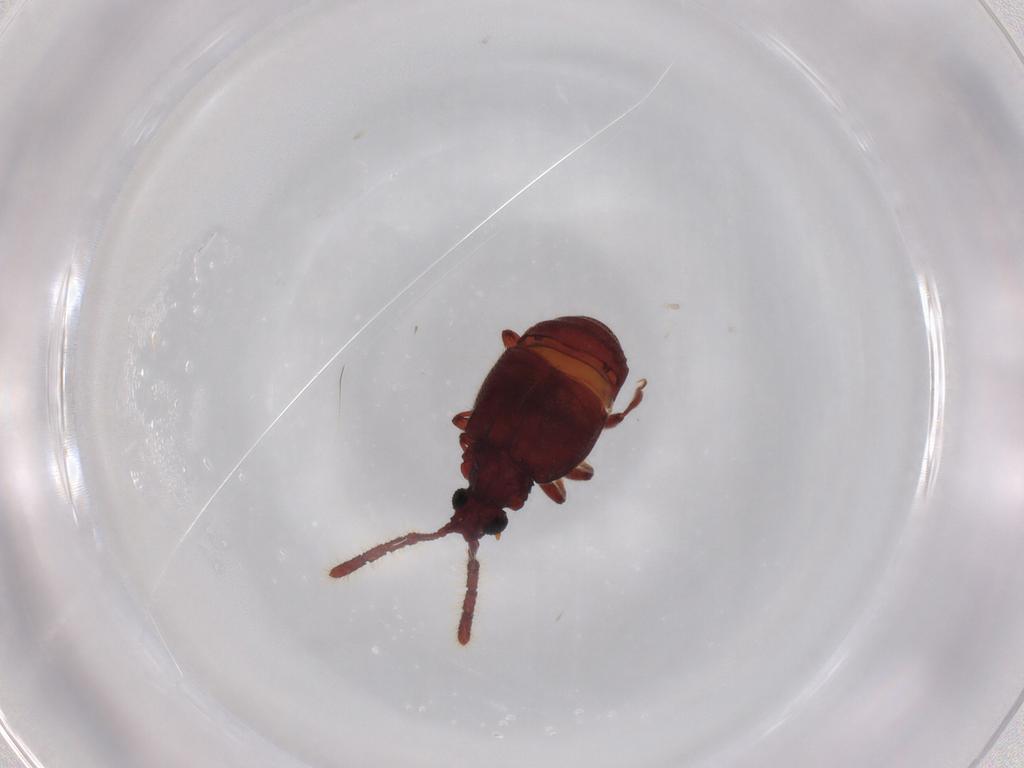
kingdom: Animalia
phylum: Arthropoda
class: Insecta
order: Coleoptera
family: Staphylinidae
